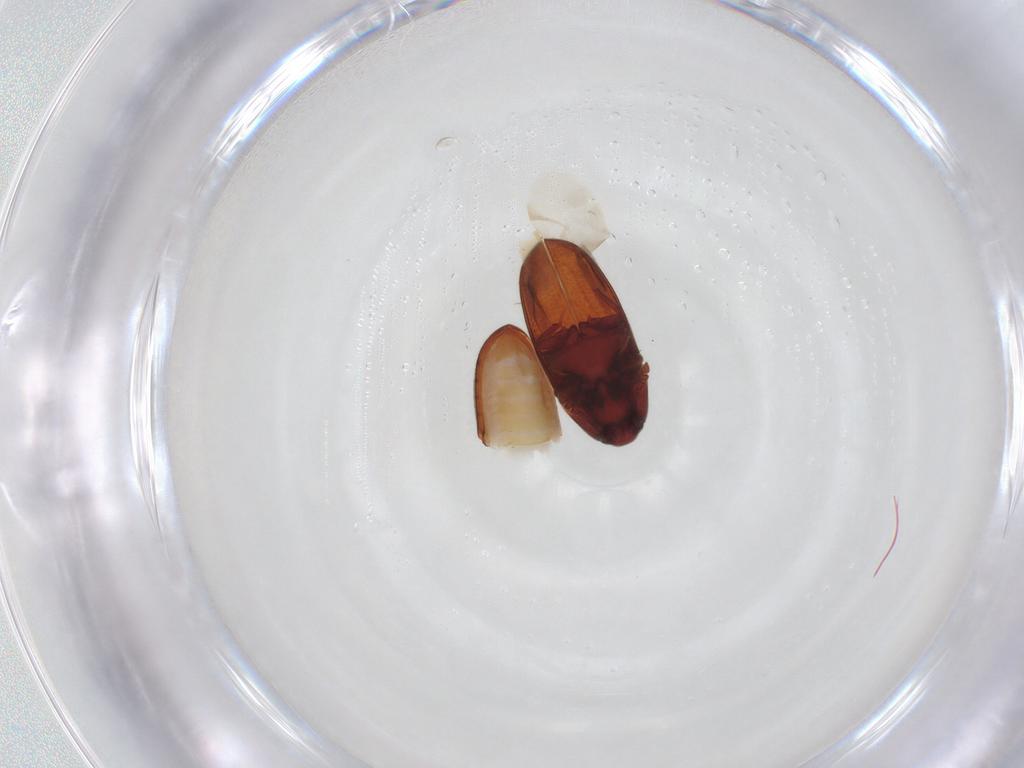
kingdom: Animalia
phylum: Arthropoda
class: Insecta
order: Coleoptera
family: Throscidae
